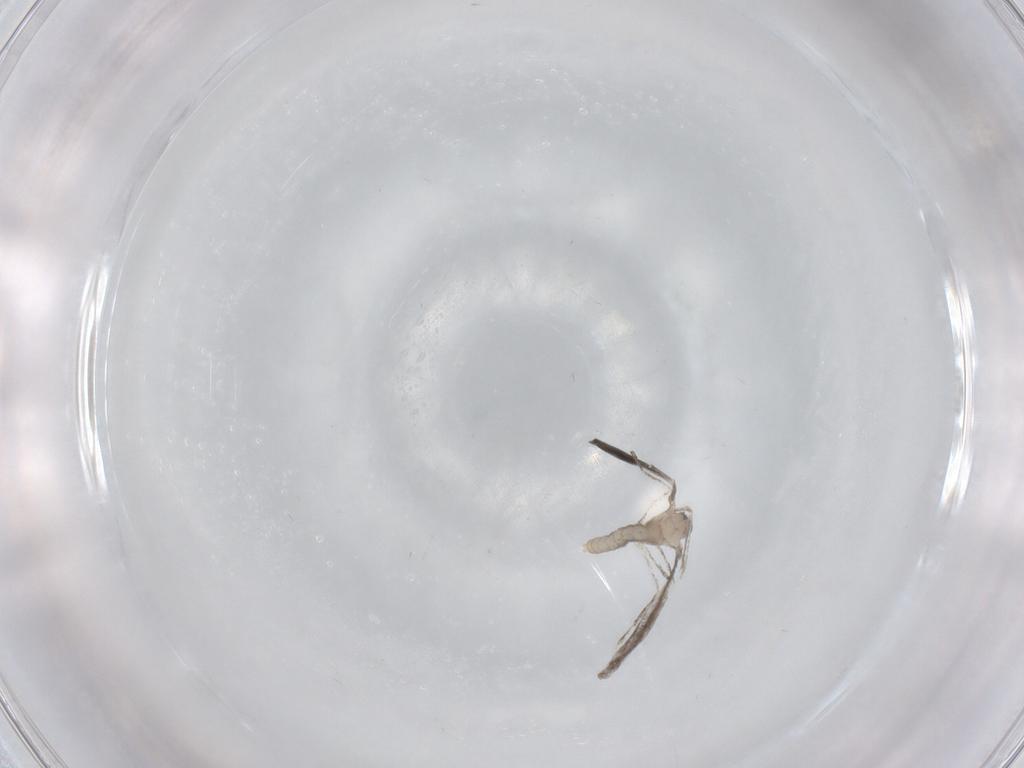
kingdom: Animalia
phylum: Arthropoda
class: Insecta
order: Diptera
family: Cecidomyiidae
